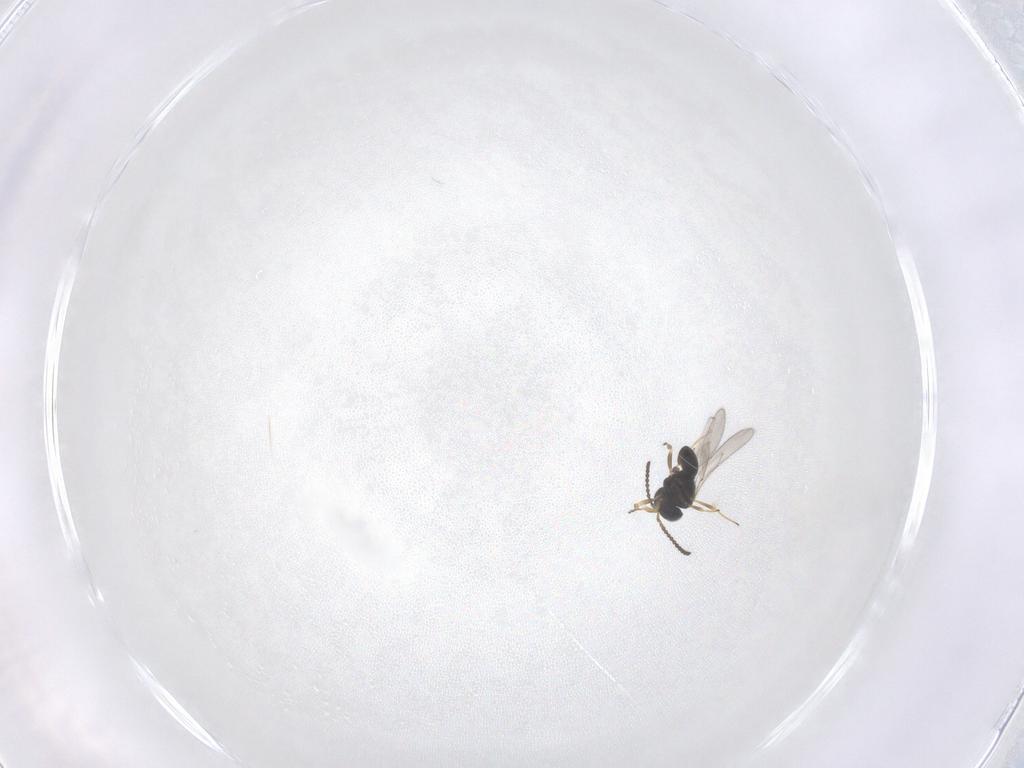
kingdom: Animalia
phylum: Arthropoda
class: Insecta
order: Hymenoptera
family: Scelionidae
